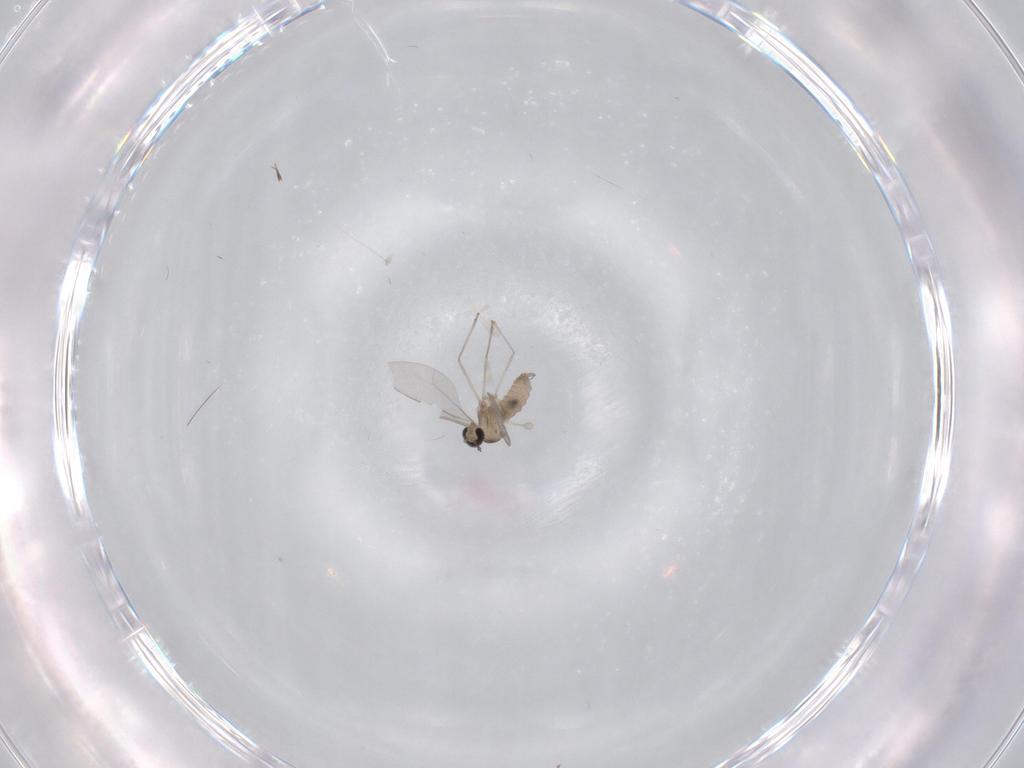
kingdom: Animalia
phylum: Arthropoda
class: Insecta
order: Diptera
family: Cecidomyiidae
